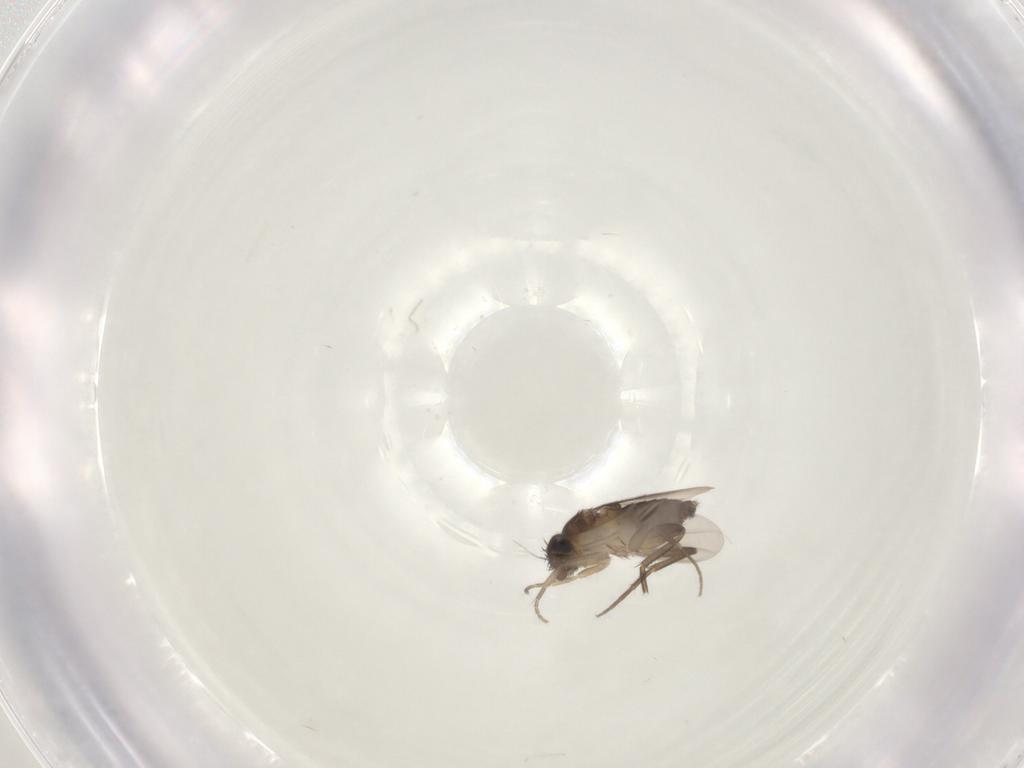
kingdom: Animalia
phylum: Arthropoda
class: Insecta
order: Diptera
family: Phoridae
